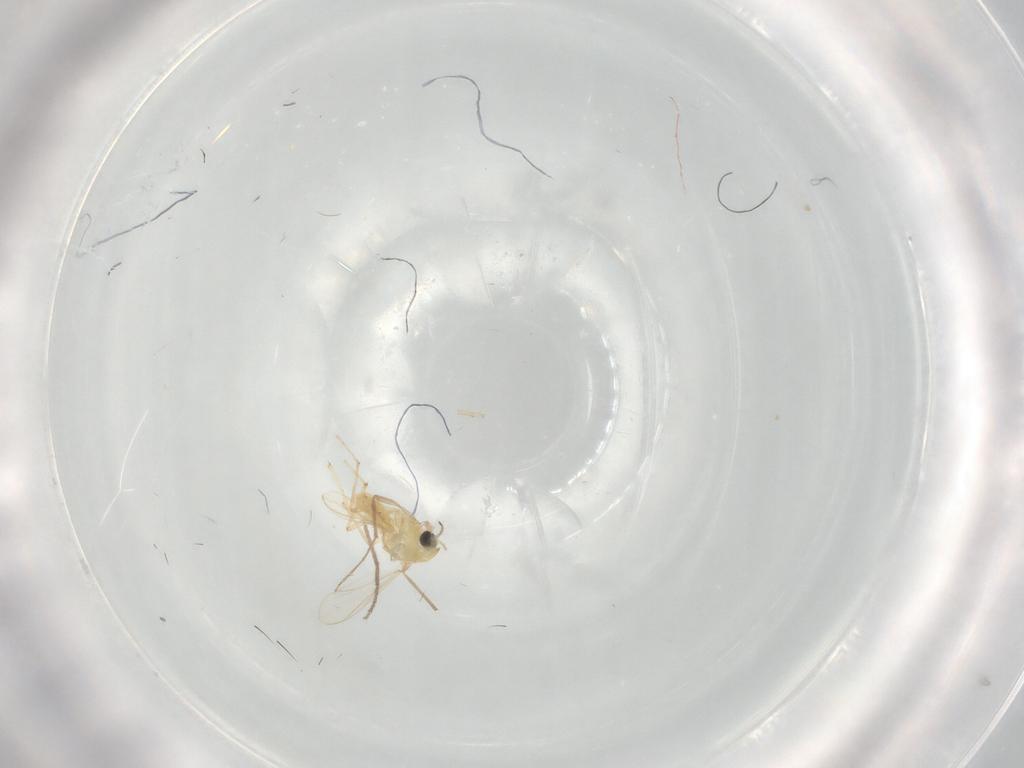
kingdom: Animalia
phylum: Arthropoda
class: Insecta
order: Diptera
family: Chironomidae
